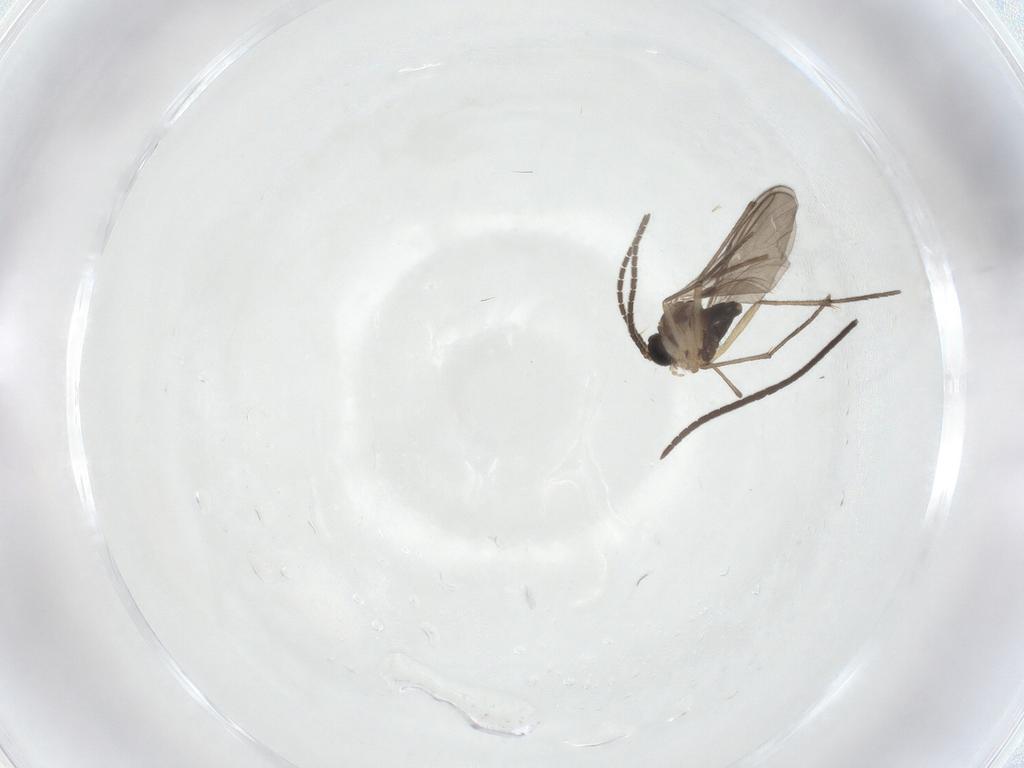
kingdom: Animalia
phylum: Arthropoda
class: Insecta
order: Diptera
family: Sciaridae
